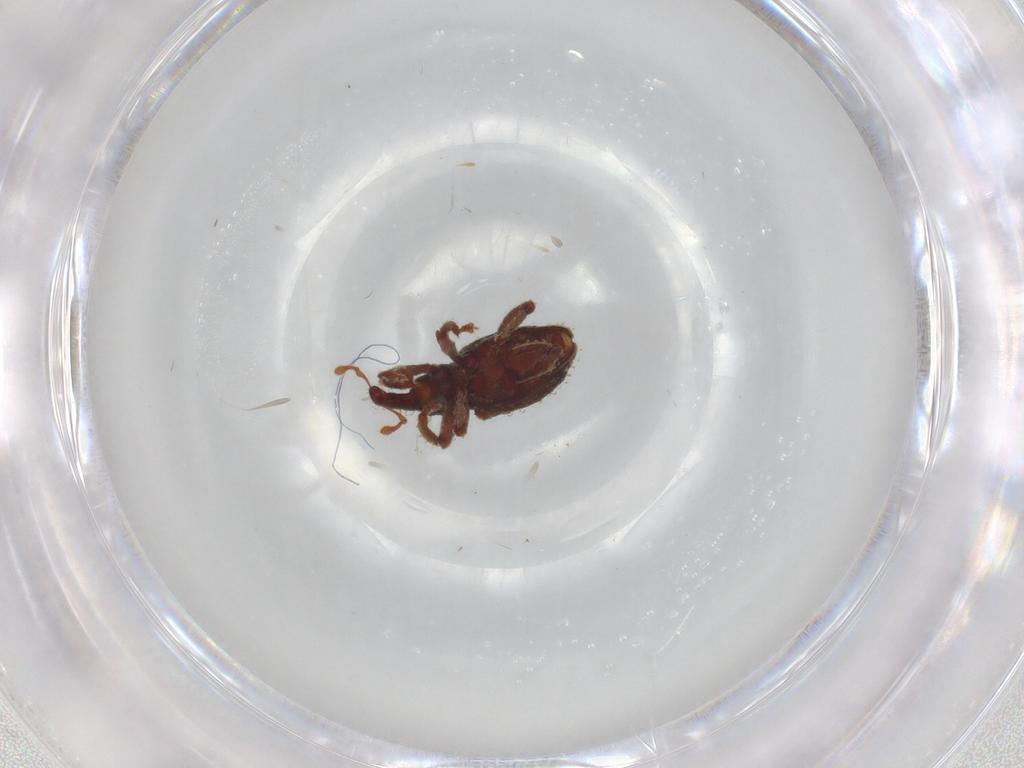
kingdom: Animalia
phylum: Arthropoda
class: Insecta
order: Coleoptera
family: Curculionidae
